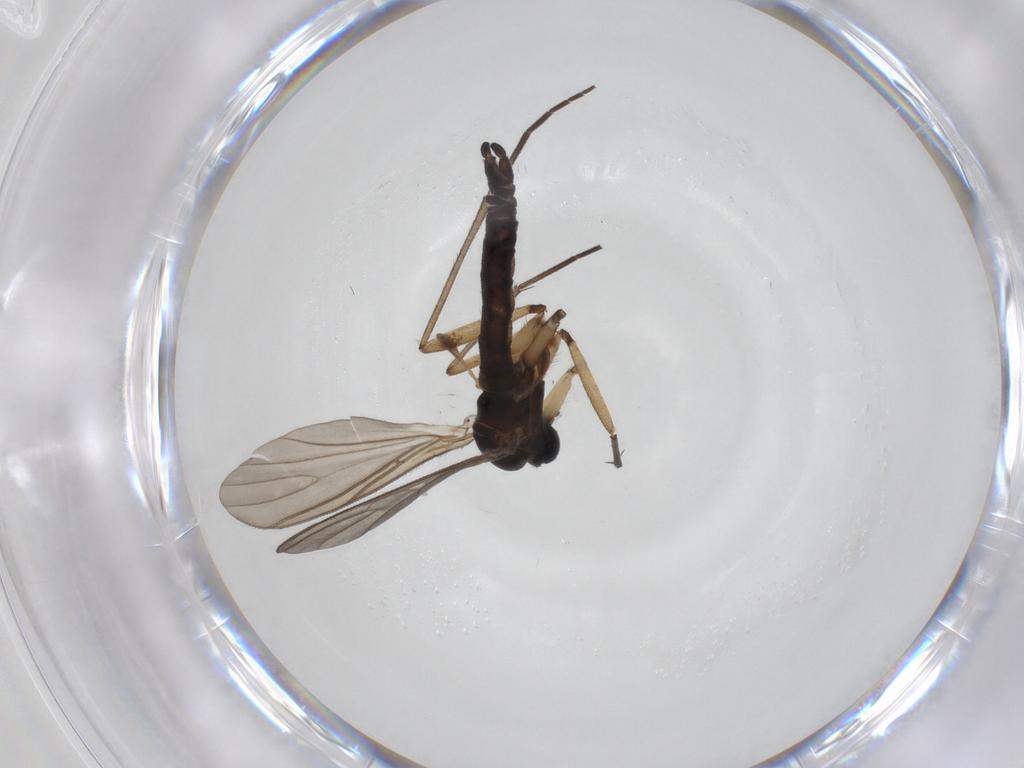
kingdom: Animalia
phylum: Arthropoda
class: Insecta
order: Diptera
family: Sciaridae
